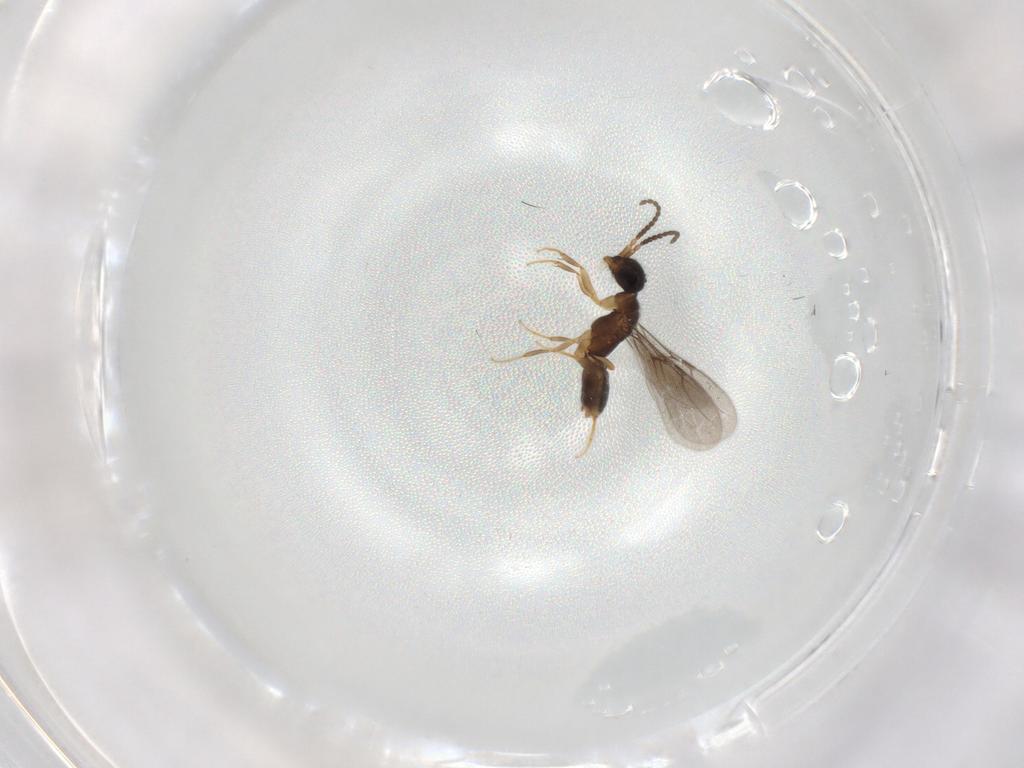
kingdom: Animalia
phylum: Arthropoda
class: Insecta
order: Hymenoptera
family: Bethylidae
